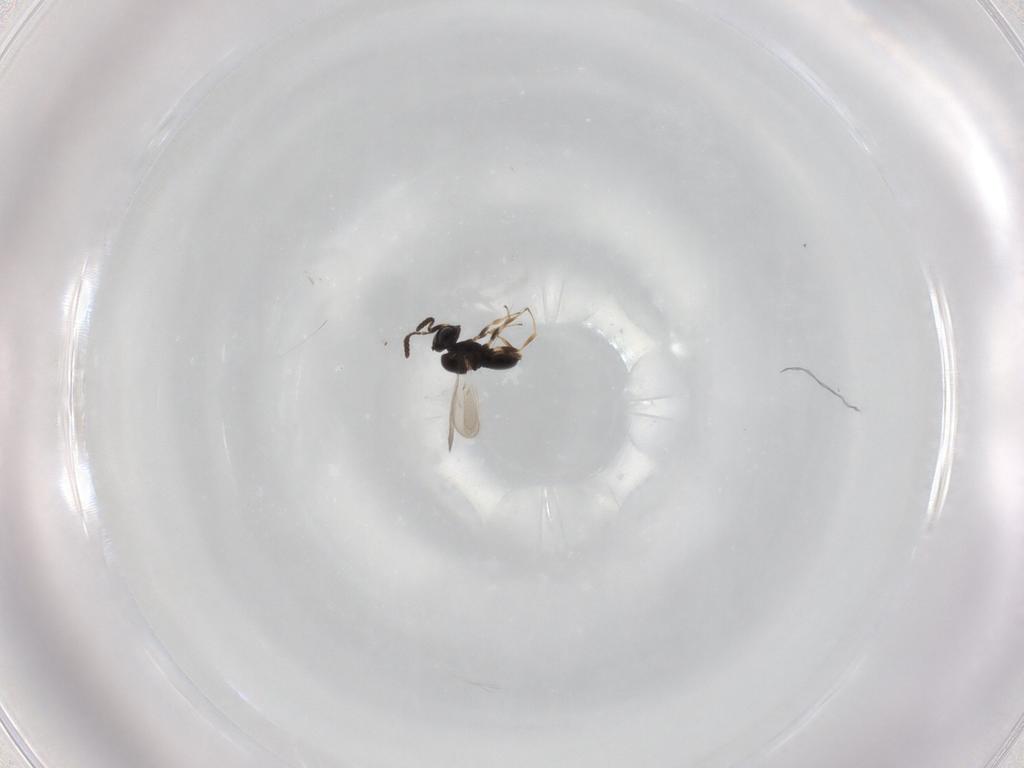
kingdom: Animalia
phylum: Arthropoda
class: Insecta
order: Hymenoptera
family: Scelionidae
